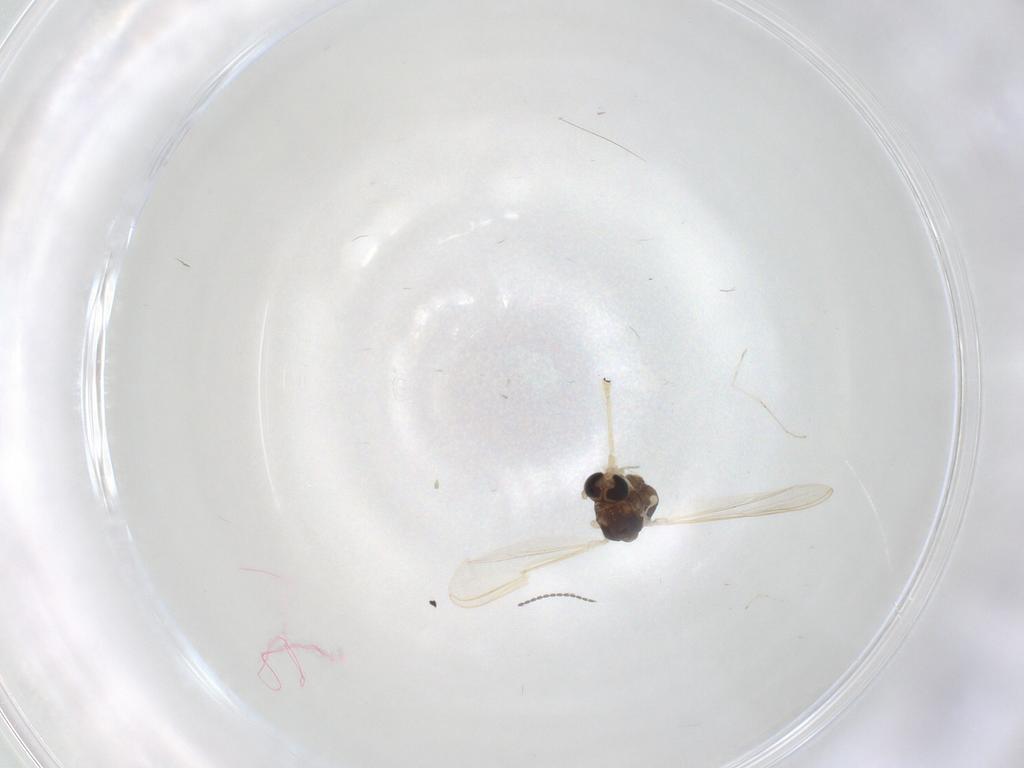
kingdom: Animalia
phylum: Arthropoda
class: Insecta
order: Diptera
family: Chironomidae
